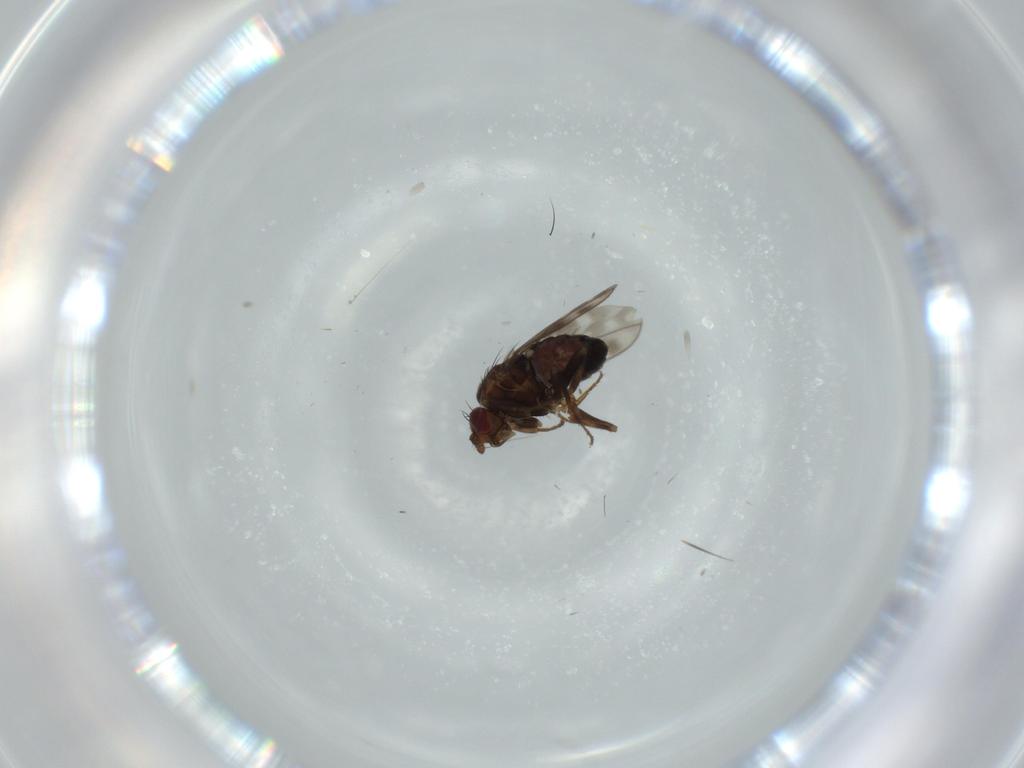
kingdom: Animalia
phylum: Arthropoda
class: Insecta
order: Diptera
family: Sphaeroceridae
